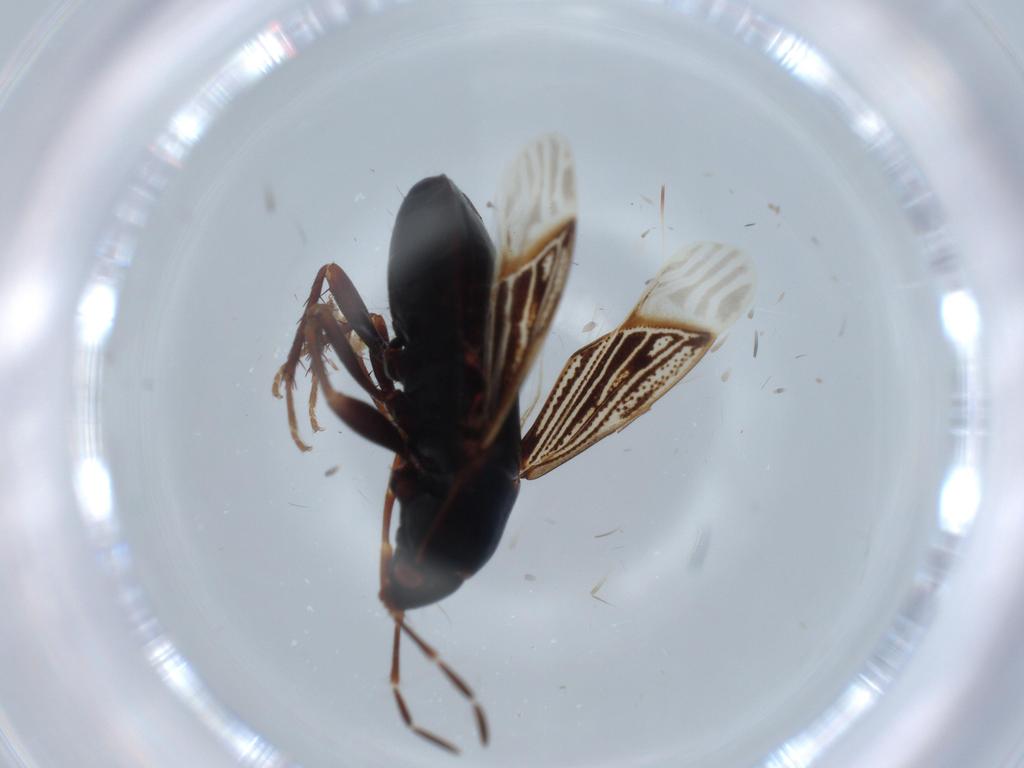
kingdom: Animalia
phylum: Arthropoda
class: Insecta
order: Hemiptera
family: Rhyparochromidae
